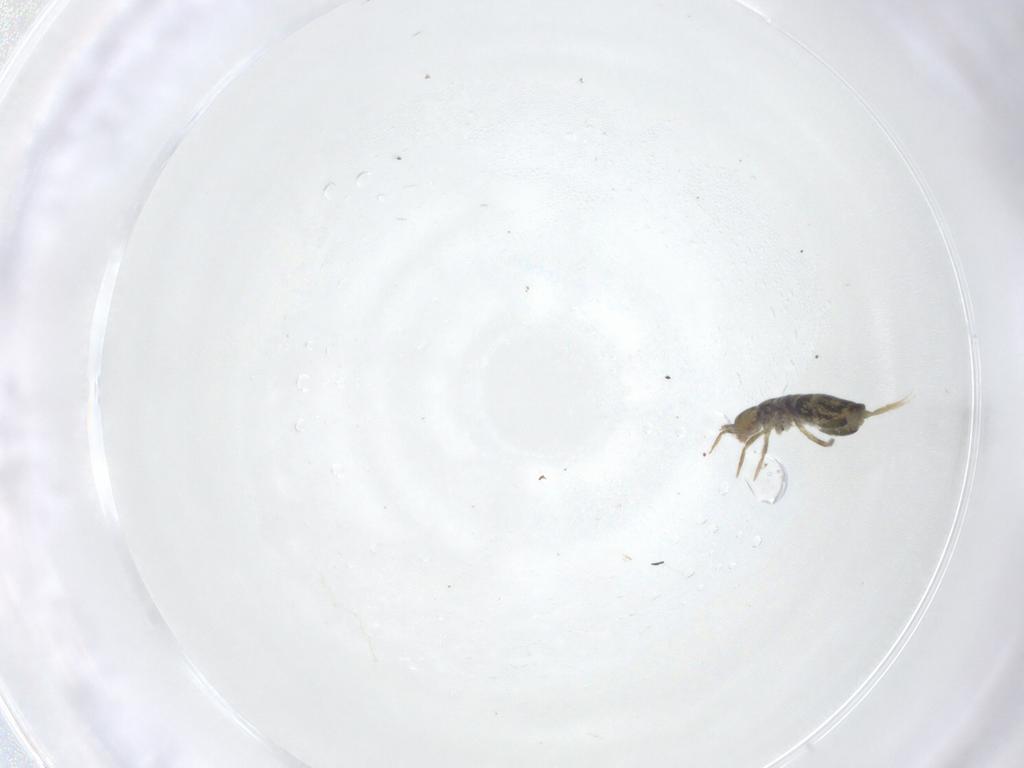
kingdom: Animalia
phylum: Arthropoda
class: Collembola
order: Entomobryomorpha
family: Entomobryidae
